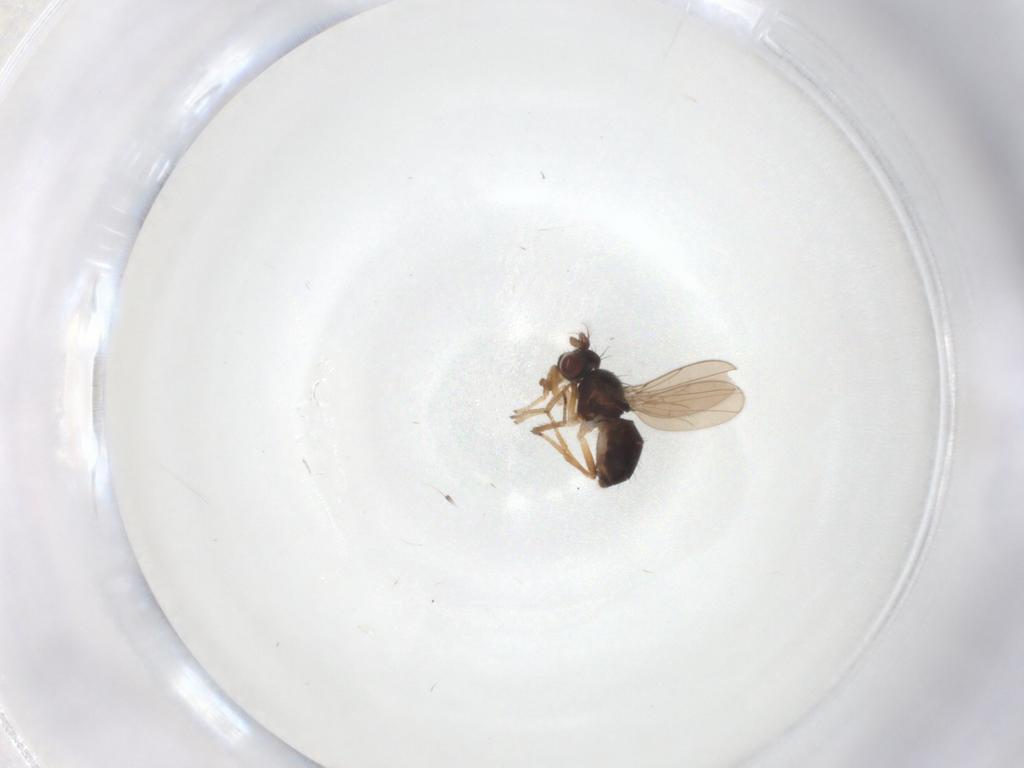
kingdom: Animalia
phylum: Arthropoda
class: Insecta
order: Diptera
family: Ephydridae
